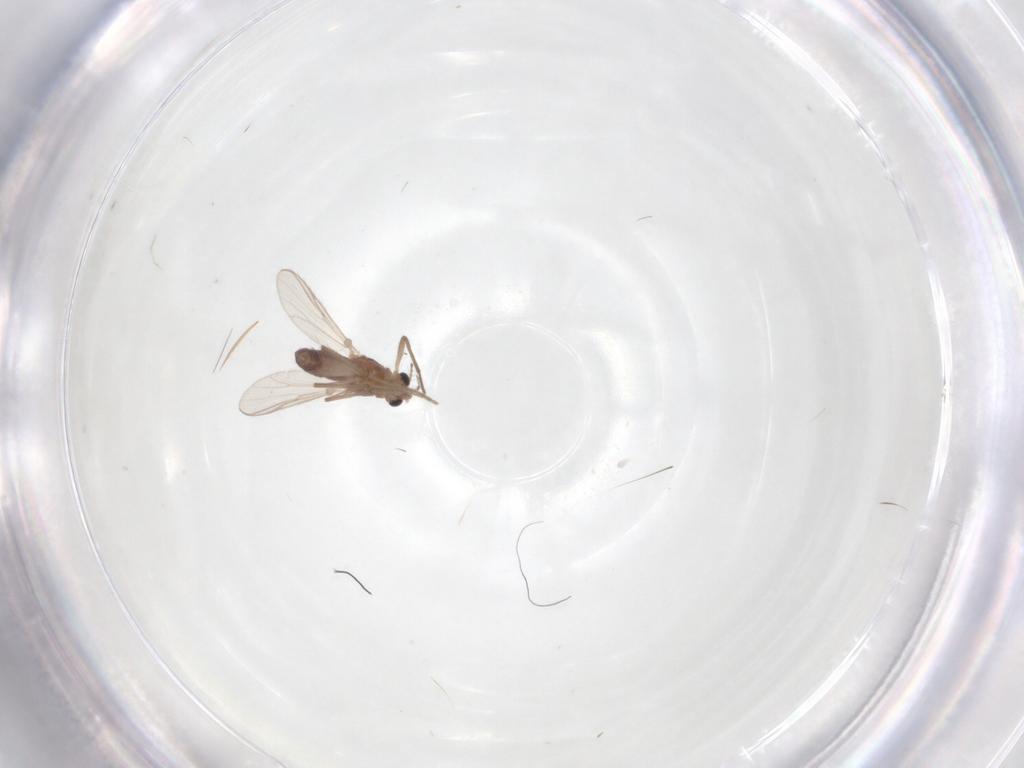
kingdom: Animalia
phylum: Arthropoda
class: Insecta
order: Diptera
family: Chironomidae
